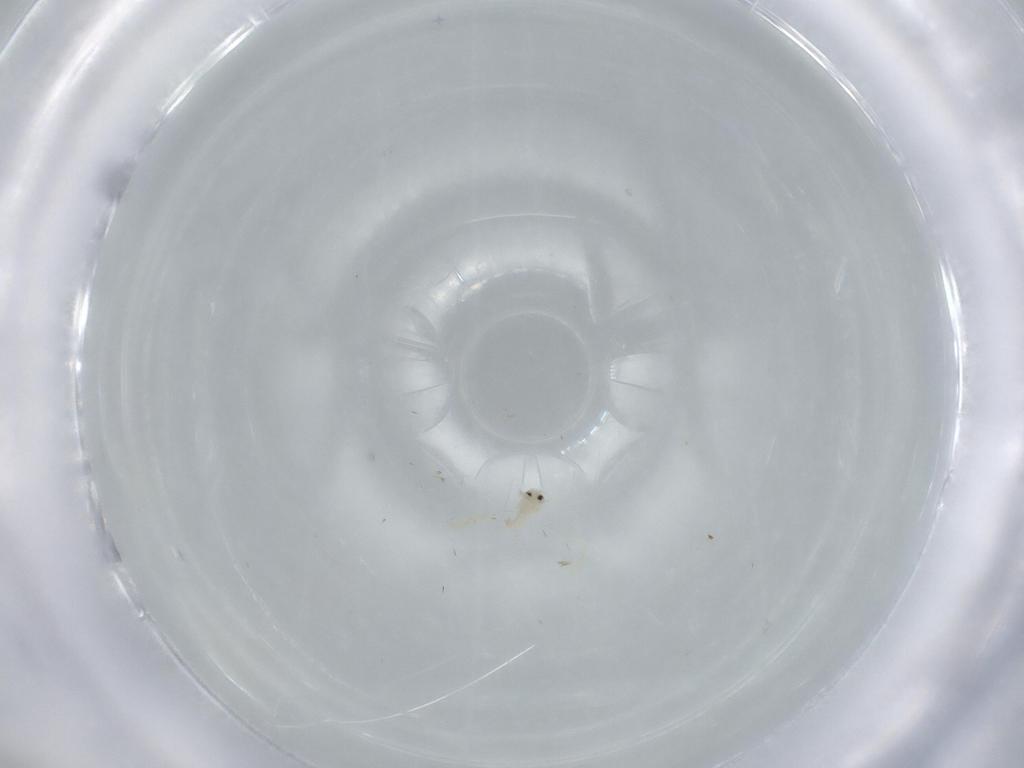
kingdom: Animalia
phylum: Arthropoda
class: Insecta
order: Hemiptera
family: Aleyrodidae
